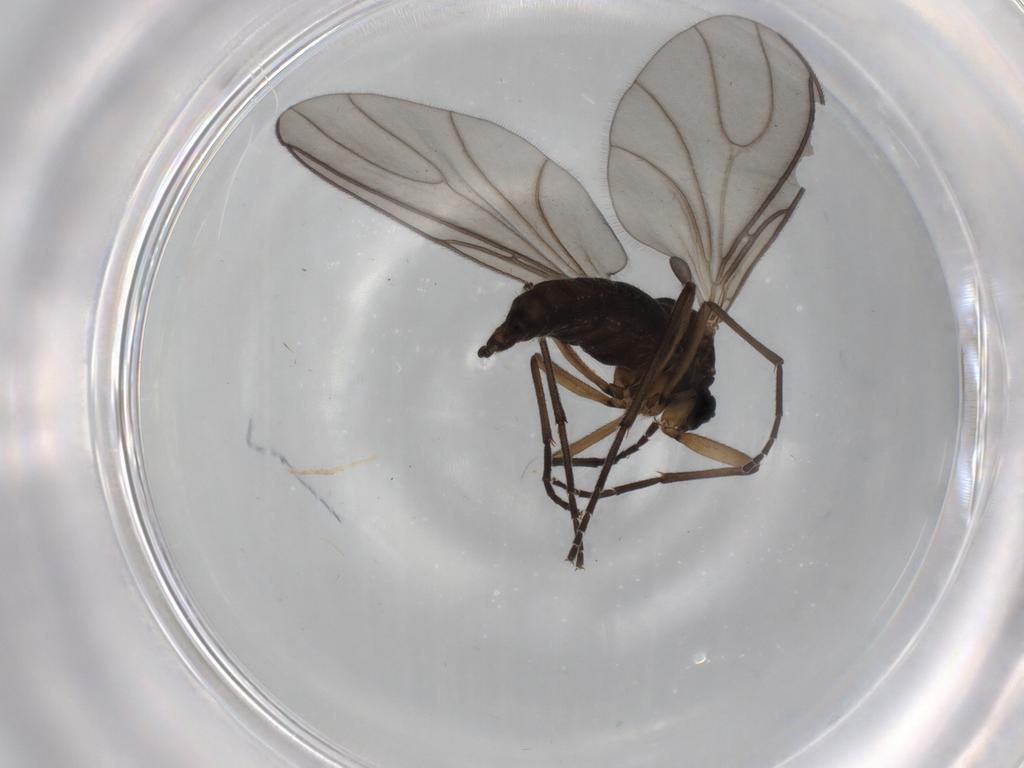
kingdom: Animalia
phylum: Arthropoda
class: Insecta
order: Diptera
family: Sciaridae
